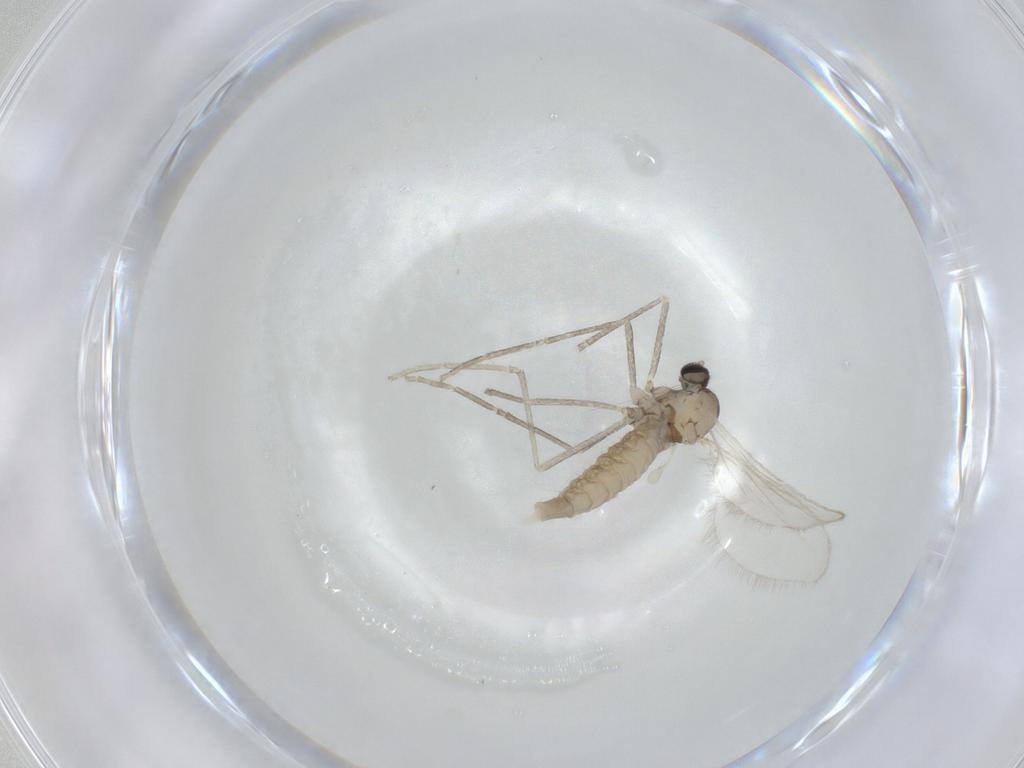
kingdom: Animalia
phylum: Arthropoda
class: Insecta
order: Diptera
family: Cecidomyiidae
